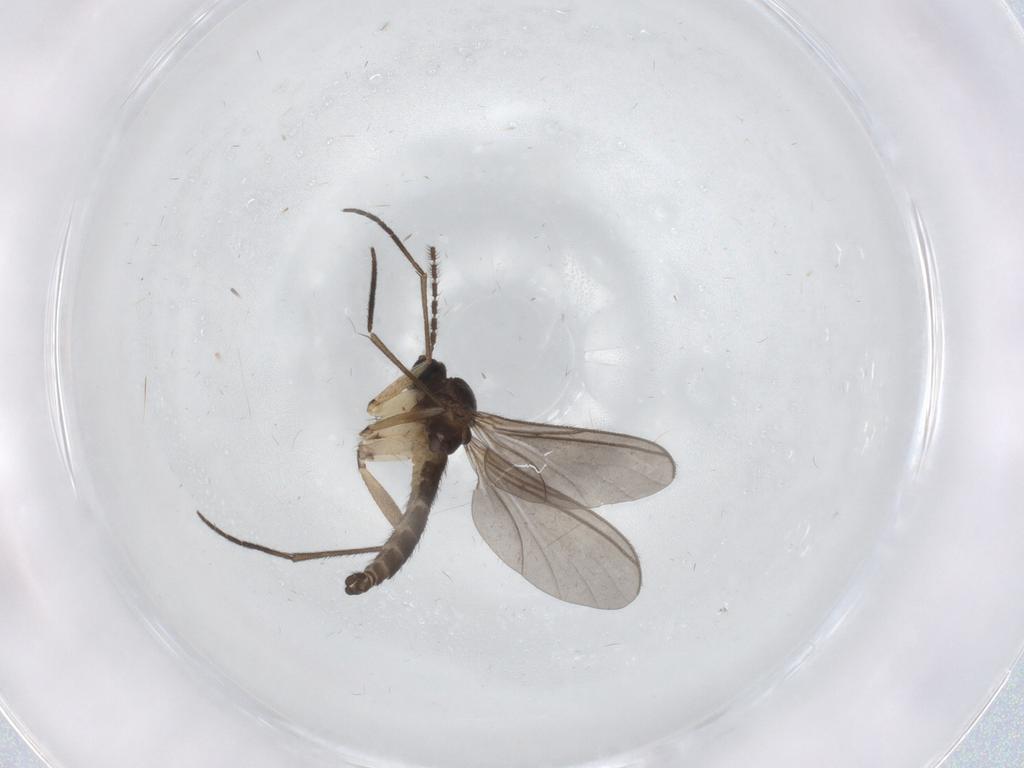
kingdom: Animalia
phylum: Arthropoda
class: Insecta
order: Diptera
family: Sciaridae
